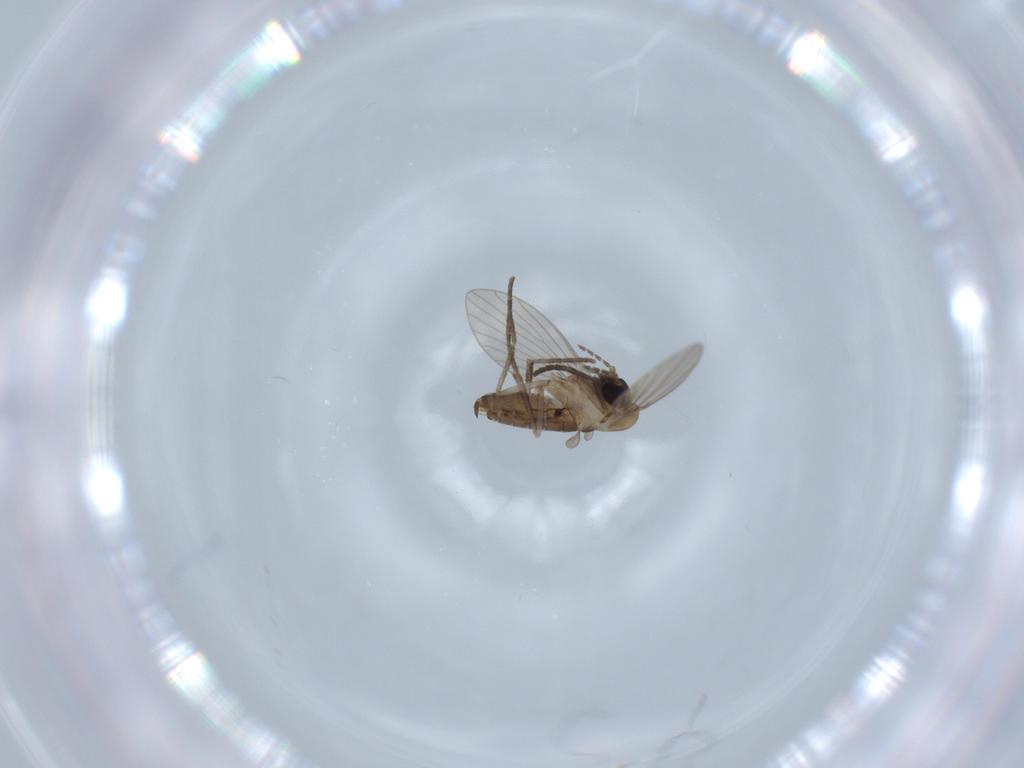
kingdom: Animalia
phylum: Arthropoda
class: Insecta
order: Diptera
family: Psychodidae
